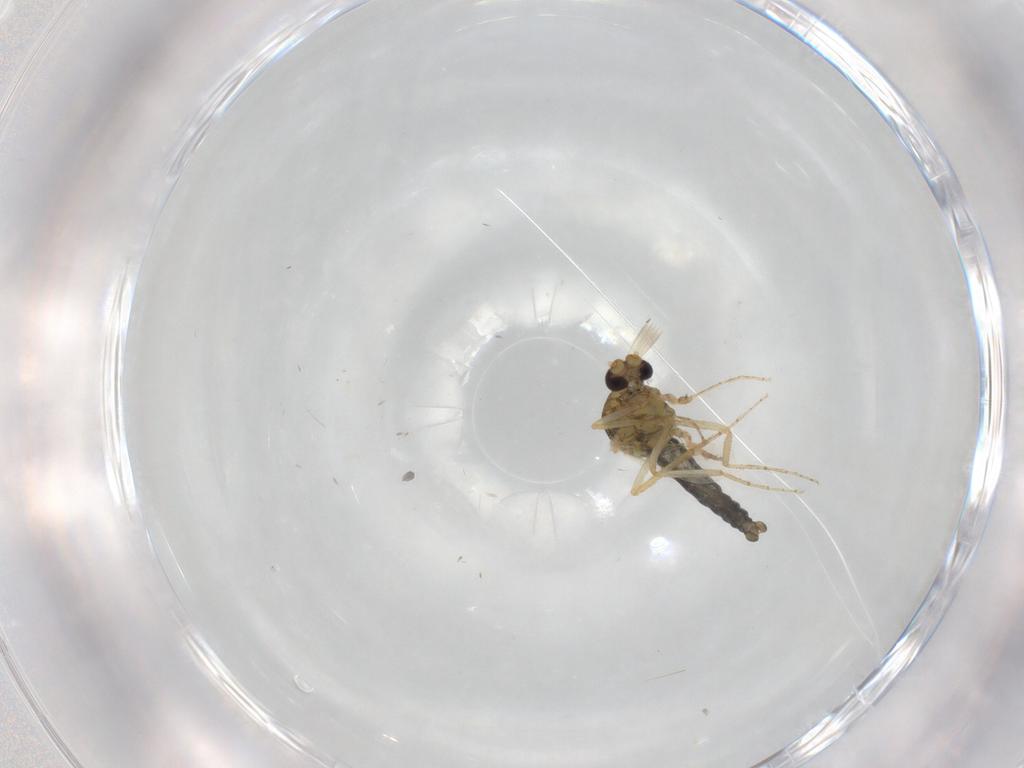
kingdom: Animalia
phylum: Arthropoda
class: Insecta
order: Diptera
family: Ceratopogonidae
